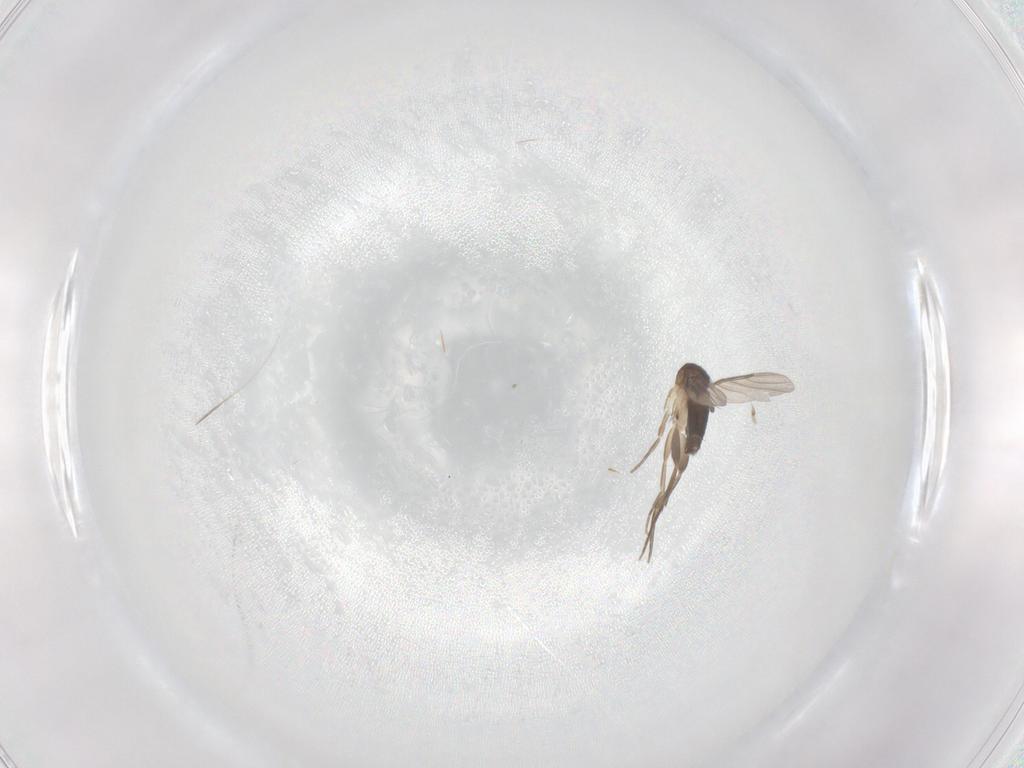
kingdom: Animalia
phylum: Arthropoda
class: Insecta
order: Diptera
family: Phoridae
